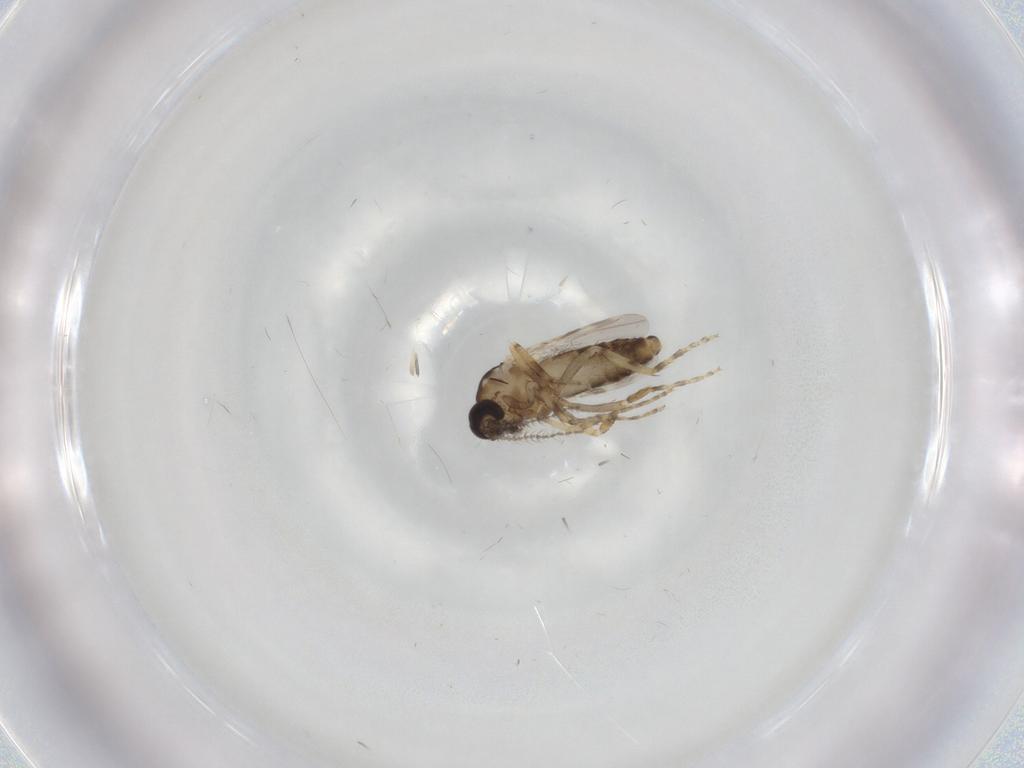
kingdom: Animalia
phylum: Arthropoda
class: Insecta
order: Diptera
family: Ceratopogonidae
